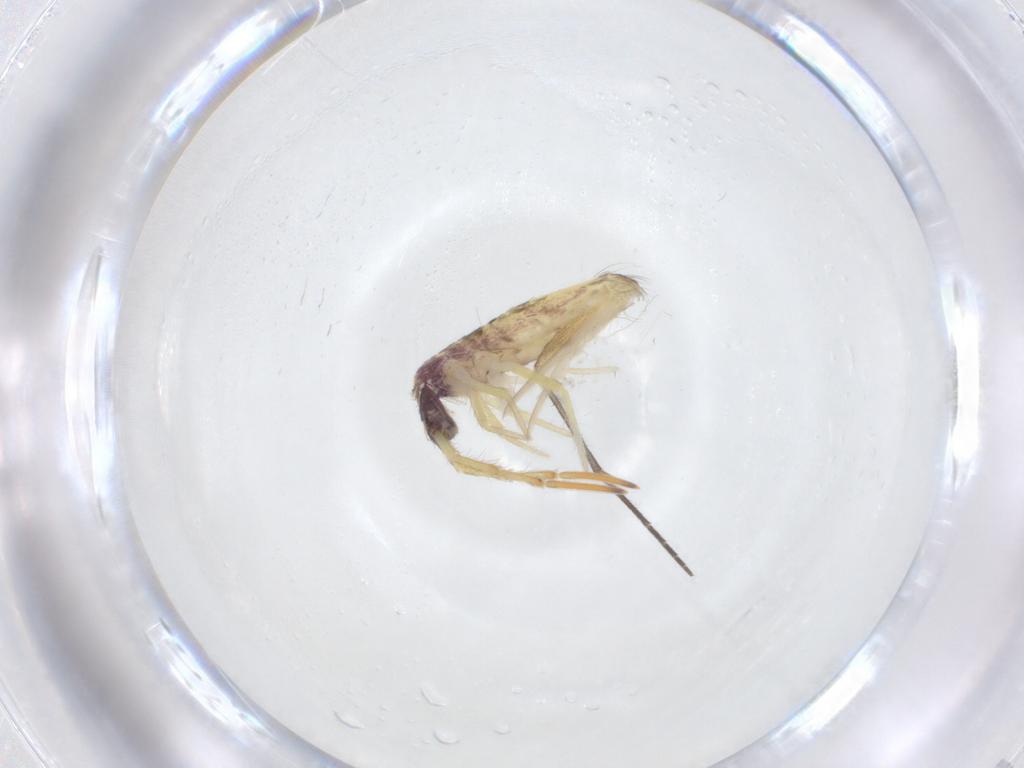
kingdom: Animalia
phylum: Arthropoda
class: Collembola
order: Entomobryomorpha
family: Entomobryidae
